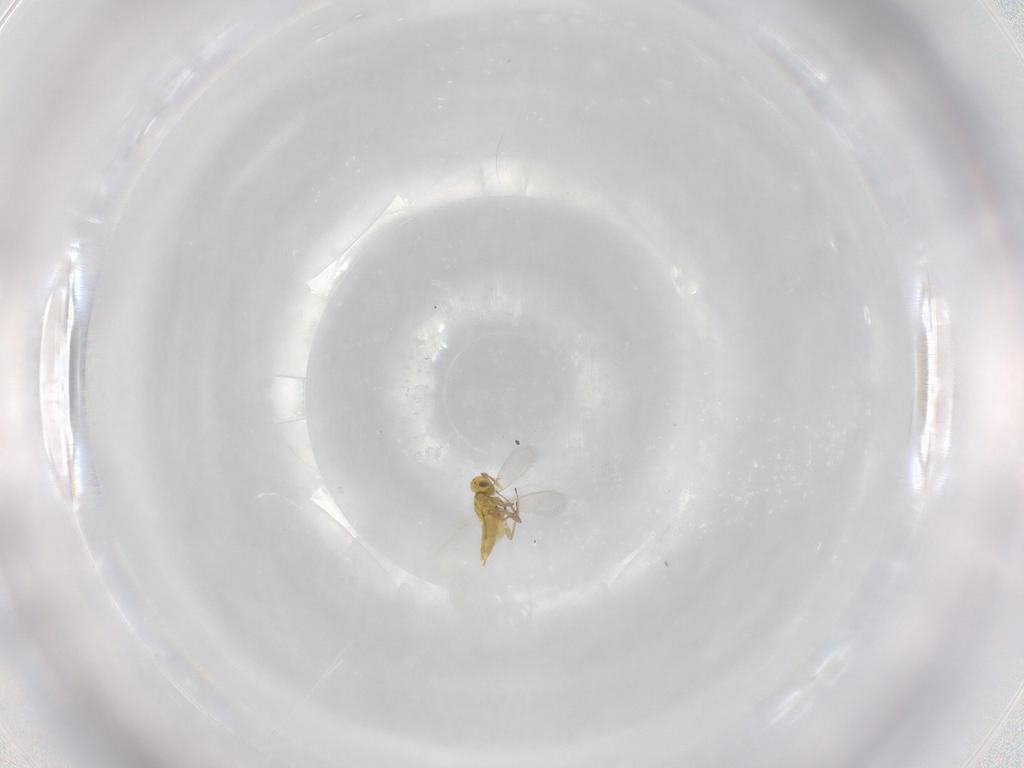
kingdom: Animalia
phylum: Arthropoda
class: Insecta
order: Hymenoptera
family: Aphelinidae
